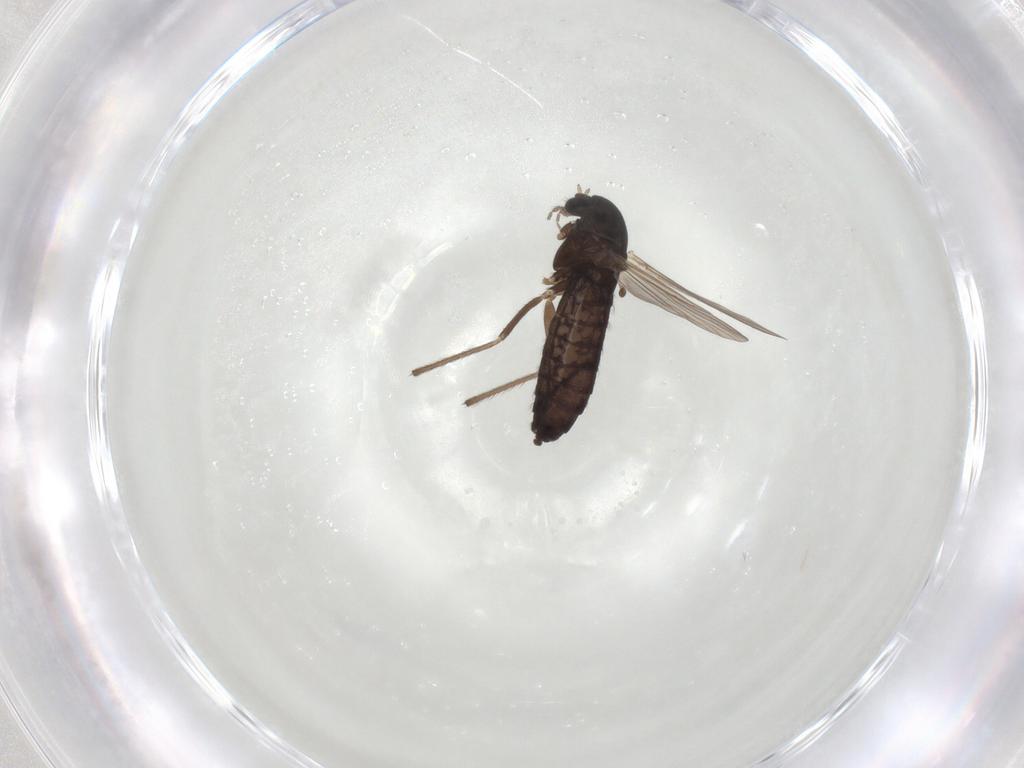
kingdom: Animalia
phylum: Arthropoda
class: Insecta
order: Diptera
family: Chironomidae
